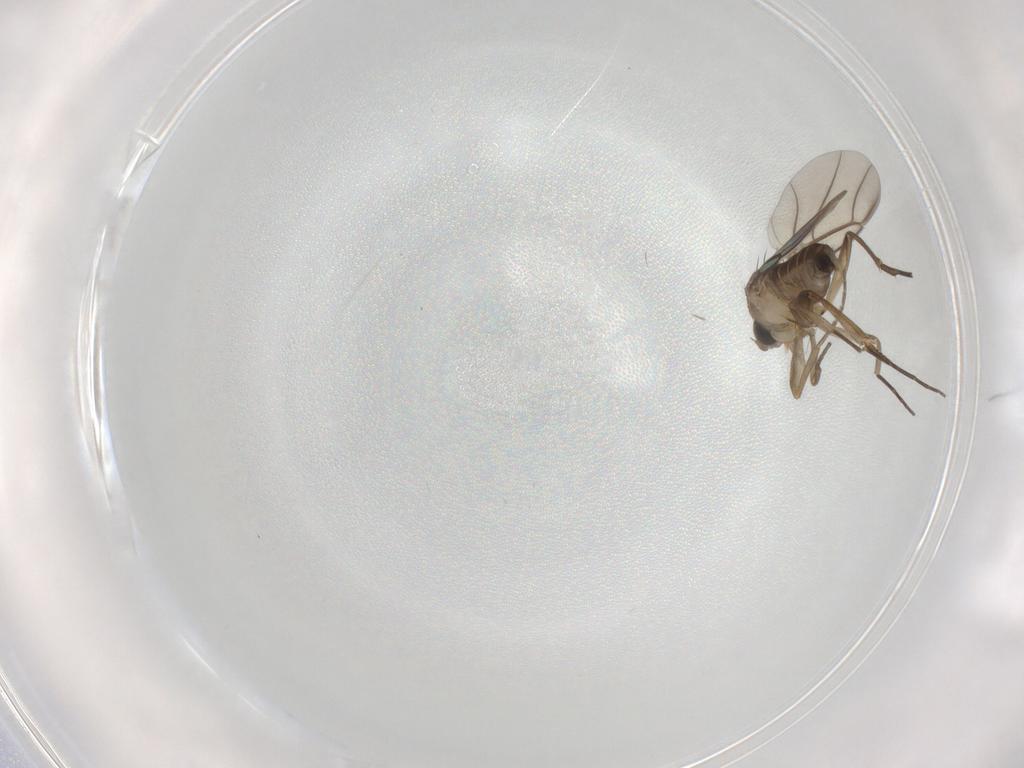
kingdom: Animalia
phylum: Arthropoda
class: Insecta
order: Diptera
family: Phoridae
